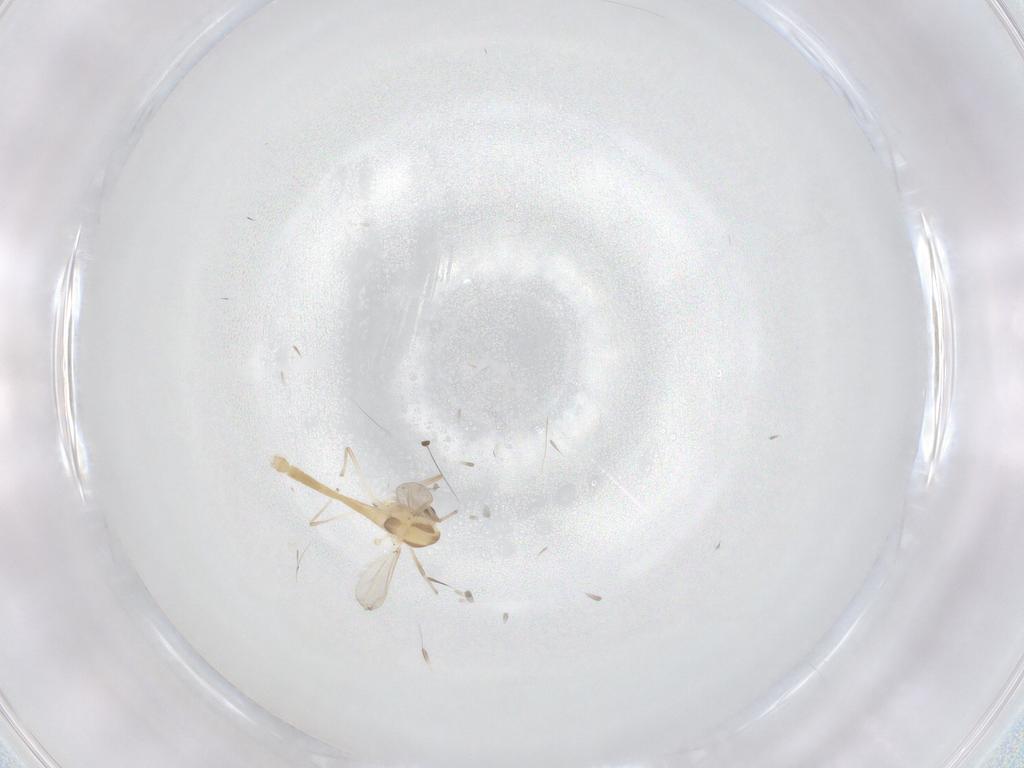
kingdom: Animalia
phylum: Arthropoda
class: Insecta
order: Diptera
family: Chironomidae
